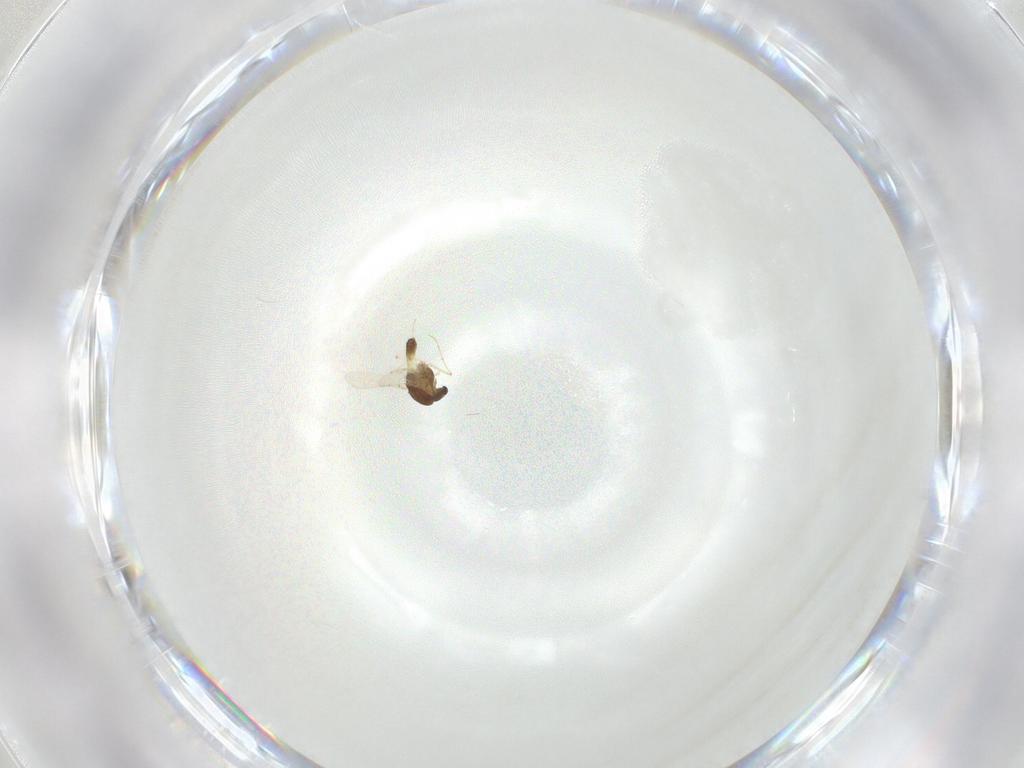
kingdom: Animalia
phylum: Arthropoda
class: Insecta
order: Diptera
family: Chironomidae
